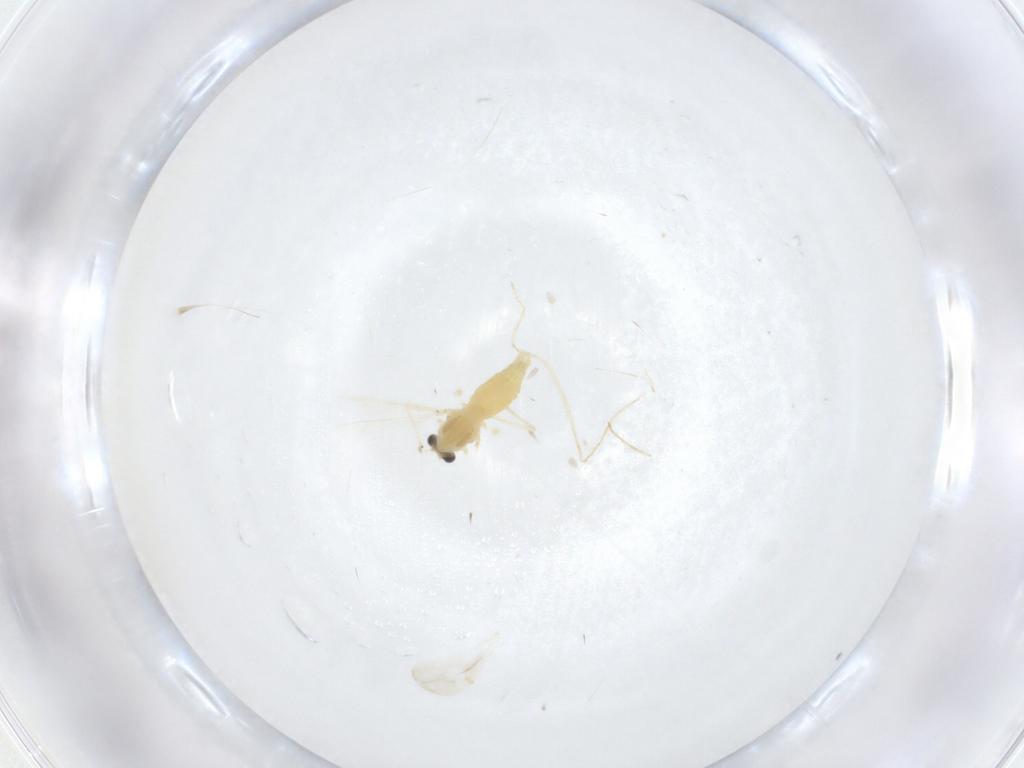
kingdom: Animalia
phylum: Arthropoda
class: Insecta
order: Diptera
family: Chironomidae
